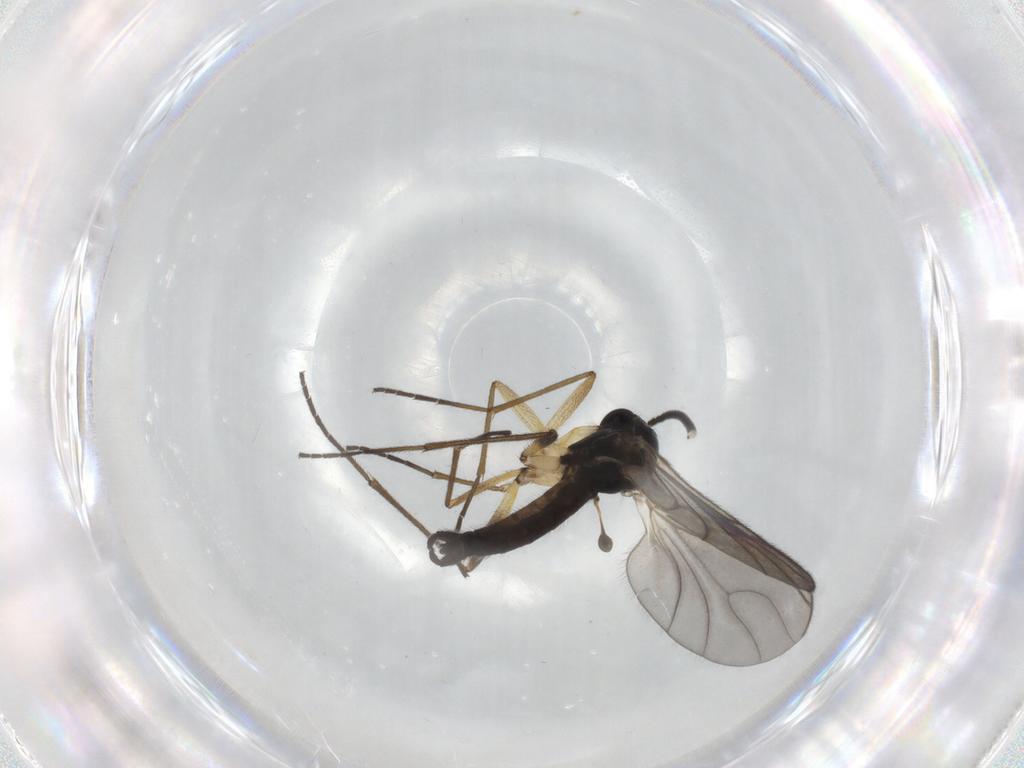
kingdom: Animalia
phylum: Arthropoda
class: Insecta
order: Diptera
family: Sciaridae
